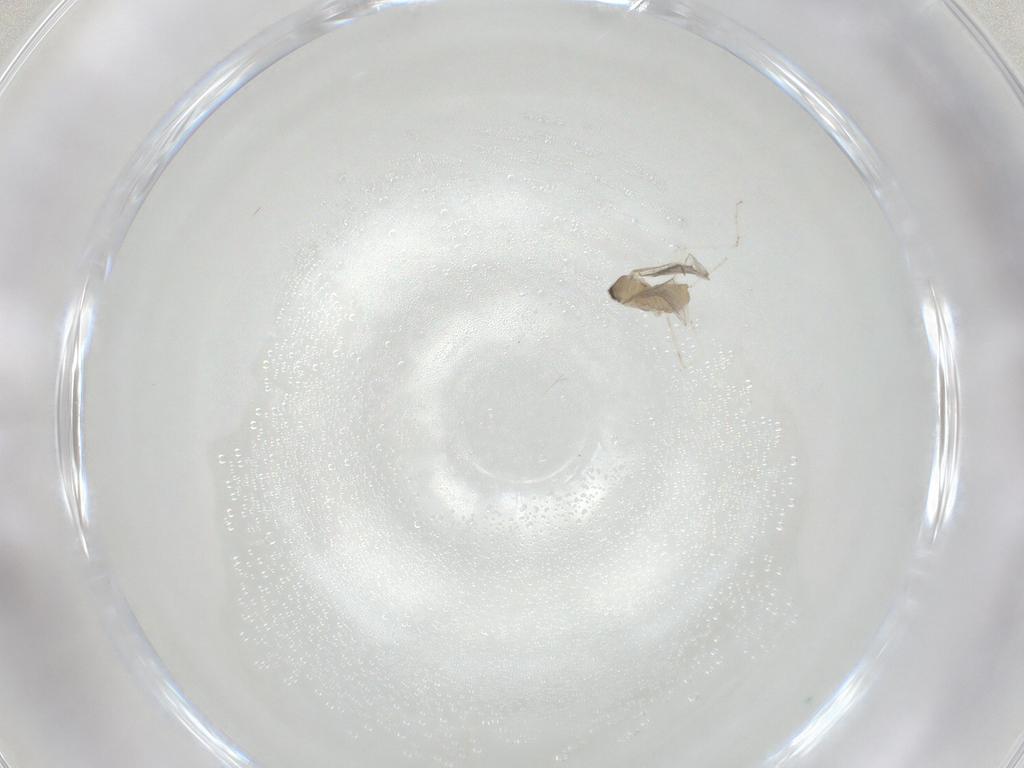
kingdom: Animalia
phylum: Arthropoda
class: Insecta
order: Diptera
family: Cecidomyiidae
